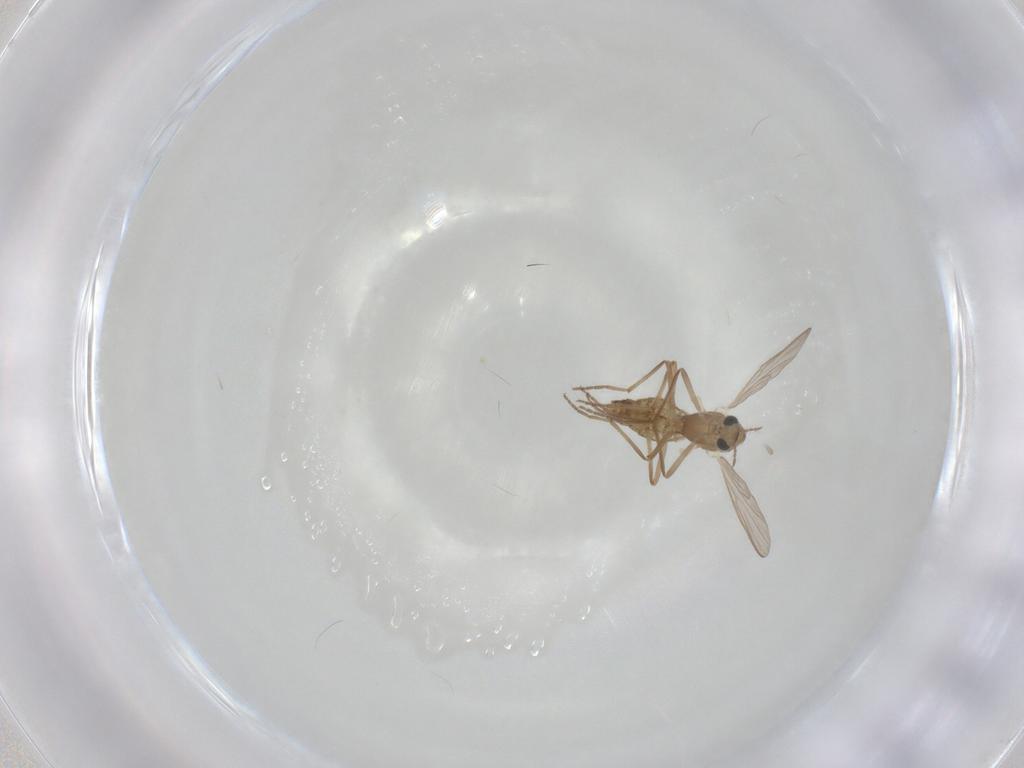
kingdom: Animalia
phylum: Arthropoda
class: Insecta
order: Diptera
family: Chironomidae
